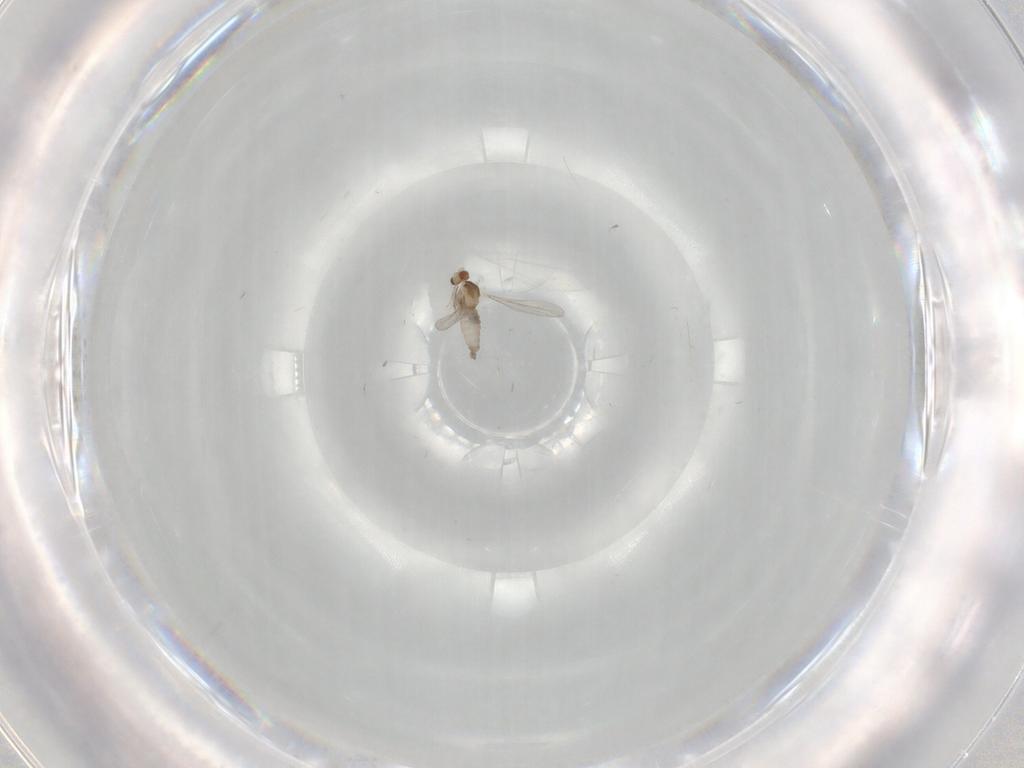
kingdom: Animalia
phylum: Arthropoda
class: Insecta
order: Diptera
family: Cecidomyiidae
